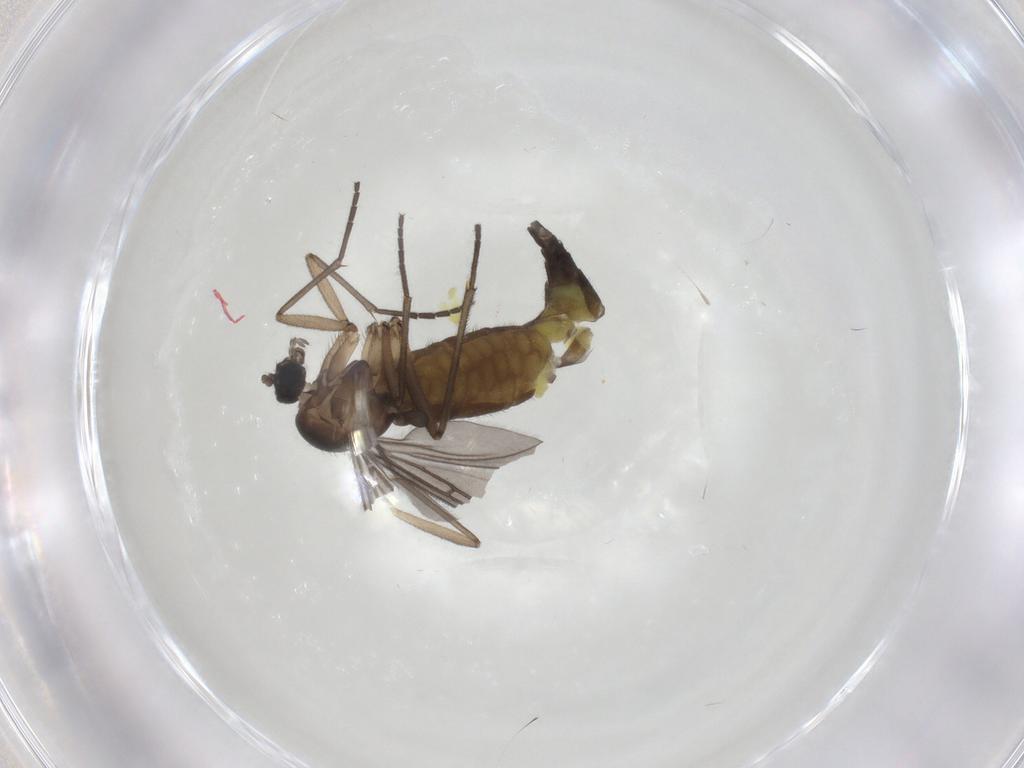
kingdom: Animalia
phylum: Arthropoda
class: Insecta
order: Diptera
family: Sciaridae
